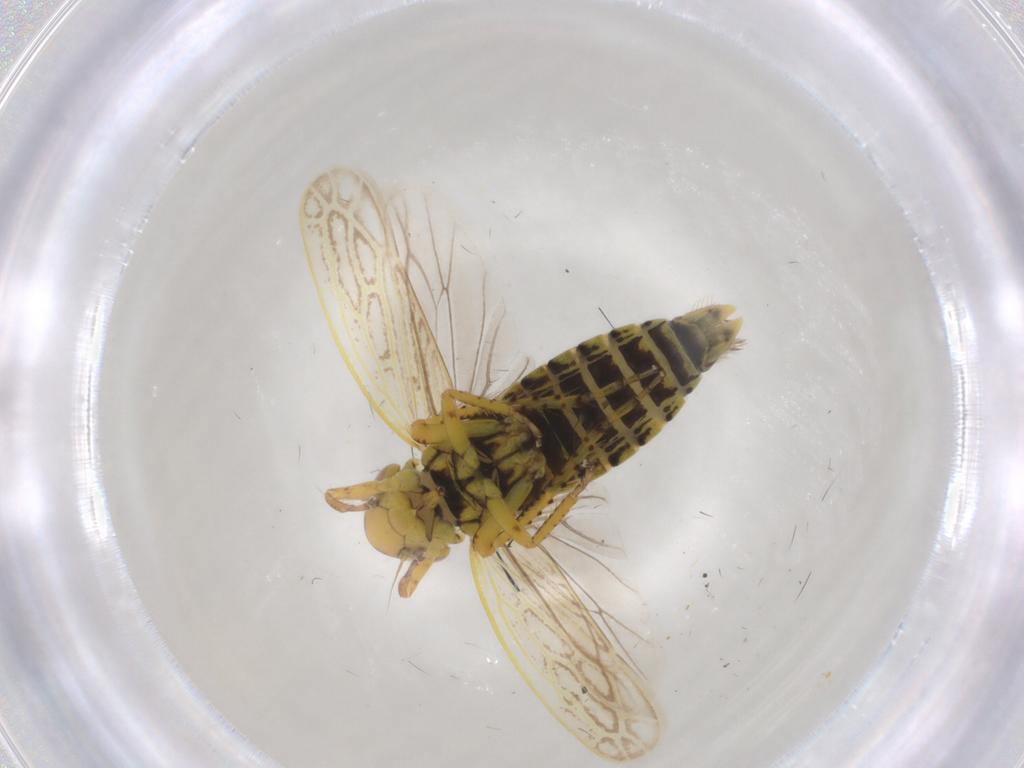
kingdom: Animalia
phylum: Arthropoda
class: Insecta
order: Hemiptera
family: Cicadellidae
